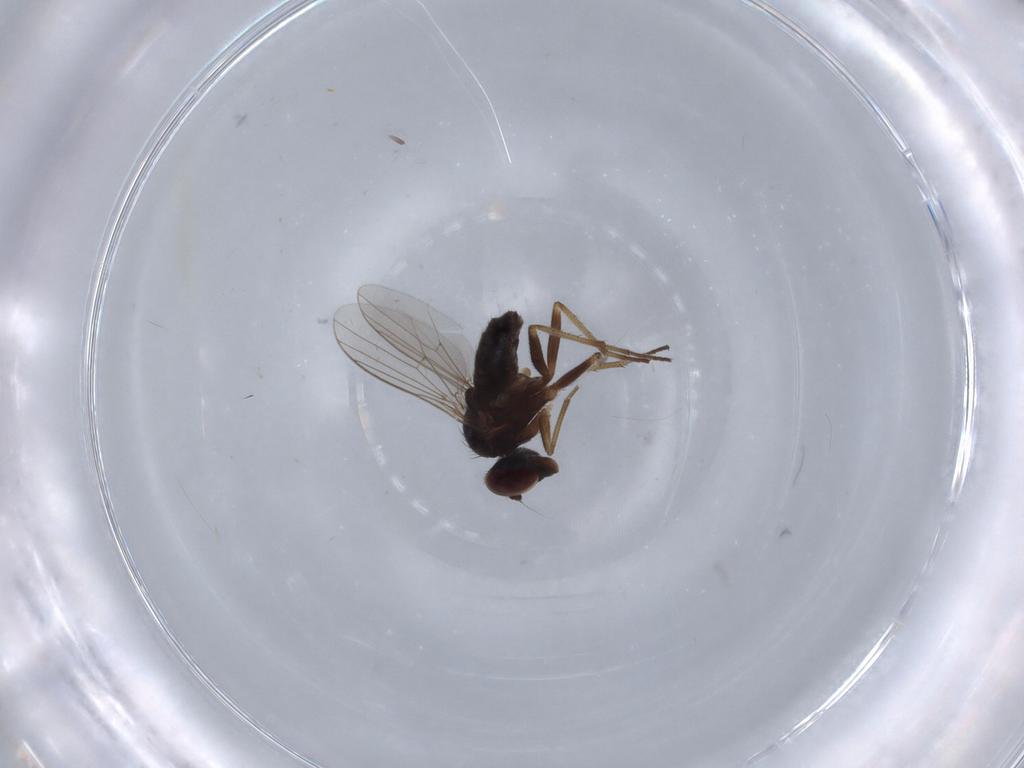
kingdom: Animalia
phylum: Arthropoda
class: Insecta
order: Diptera
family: Dolichopodidae
